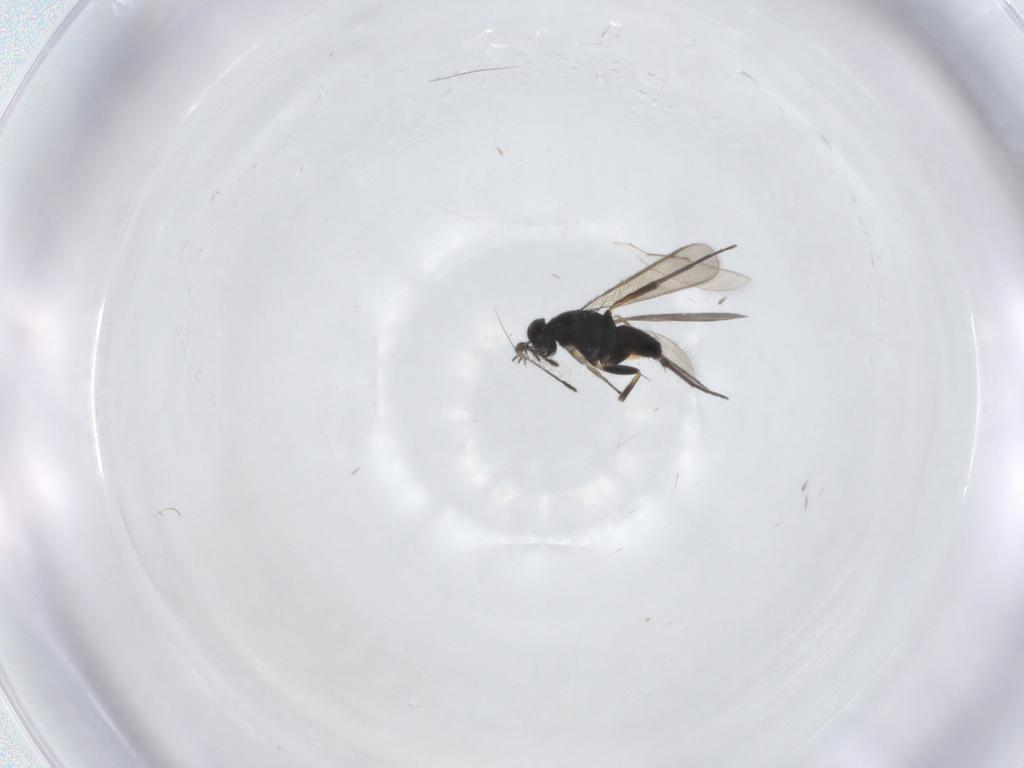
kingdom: Animalia
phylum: Arthropoda
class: Insecta
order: Hymenoptera
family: Eulophidae
